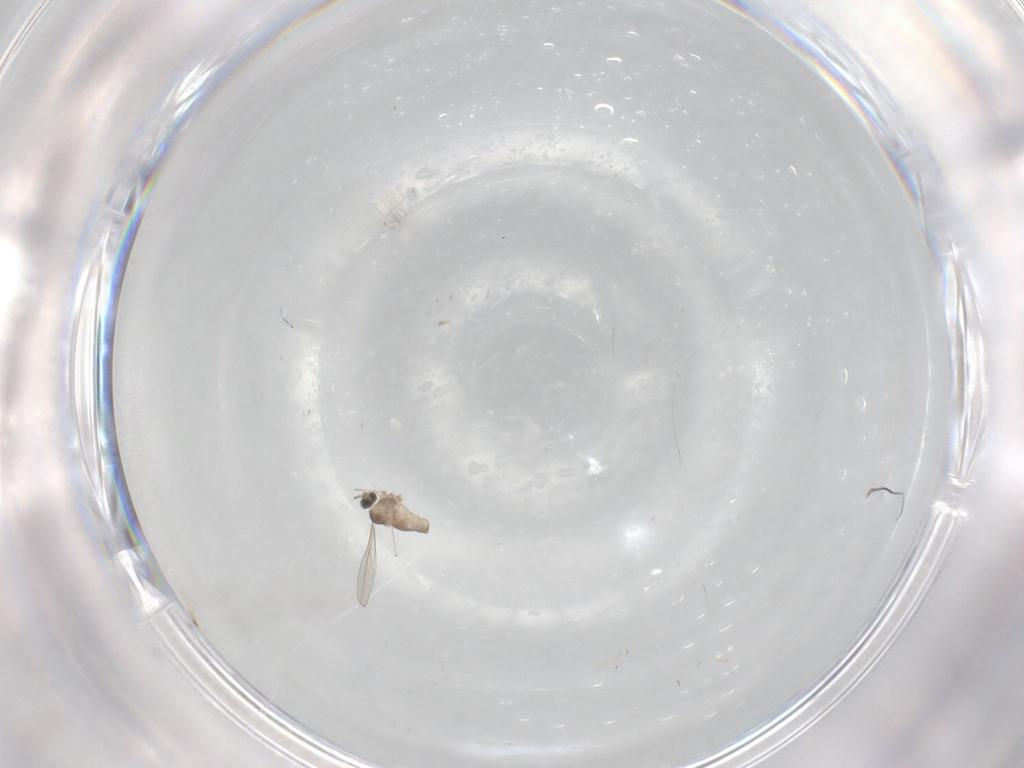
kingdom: Animalia
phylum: Arthropoda
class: Insecta
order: Diptera
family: Cecidomyiidae
